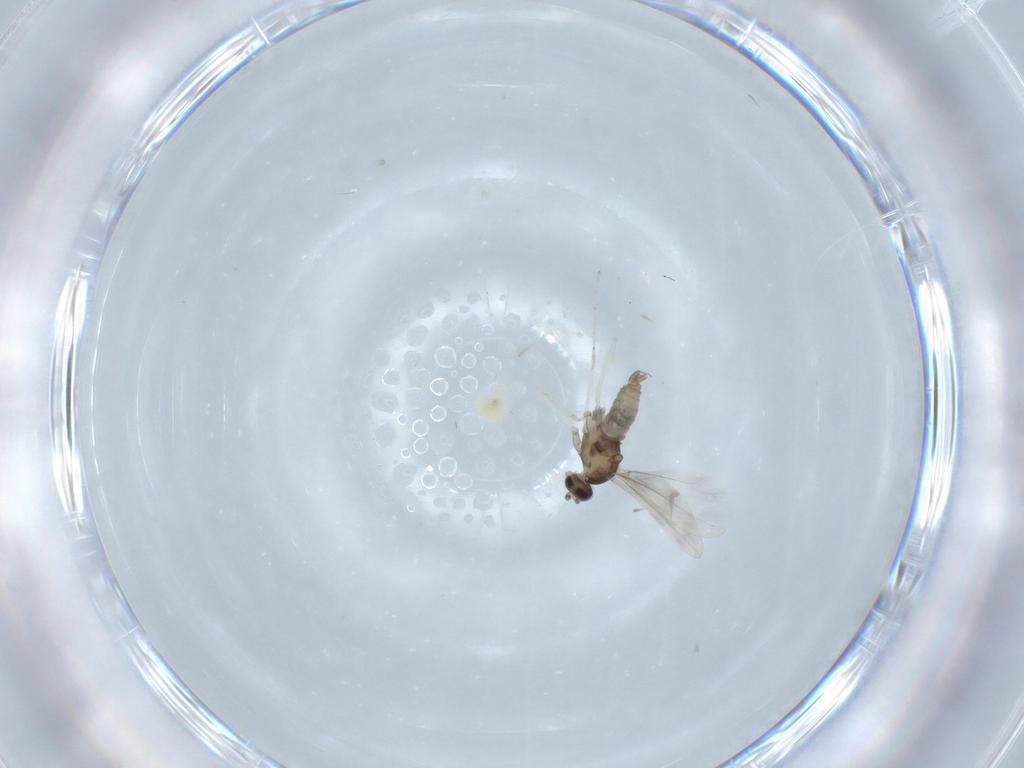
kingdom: Animalia
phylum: Arthropoda
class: Insecta
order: Diptera
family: Cecidomyiidae
